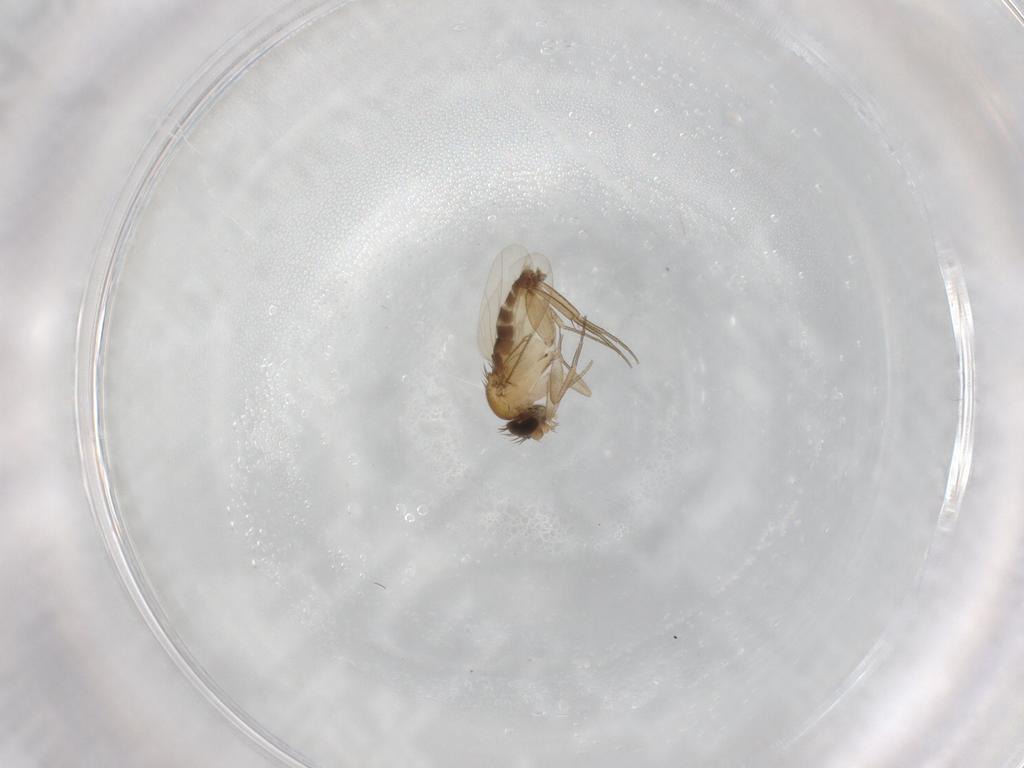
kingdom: Animalia
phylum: Arthropoda
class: Insecta
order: Diptera
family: Phoridae
